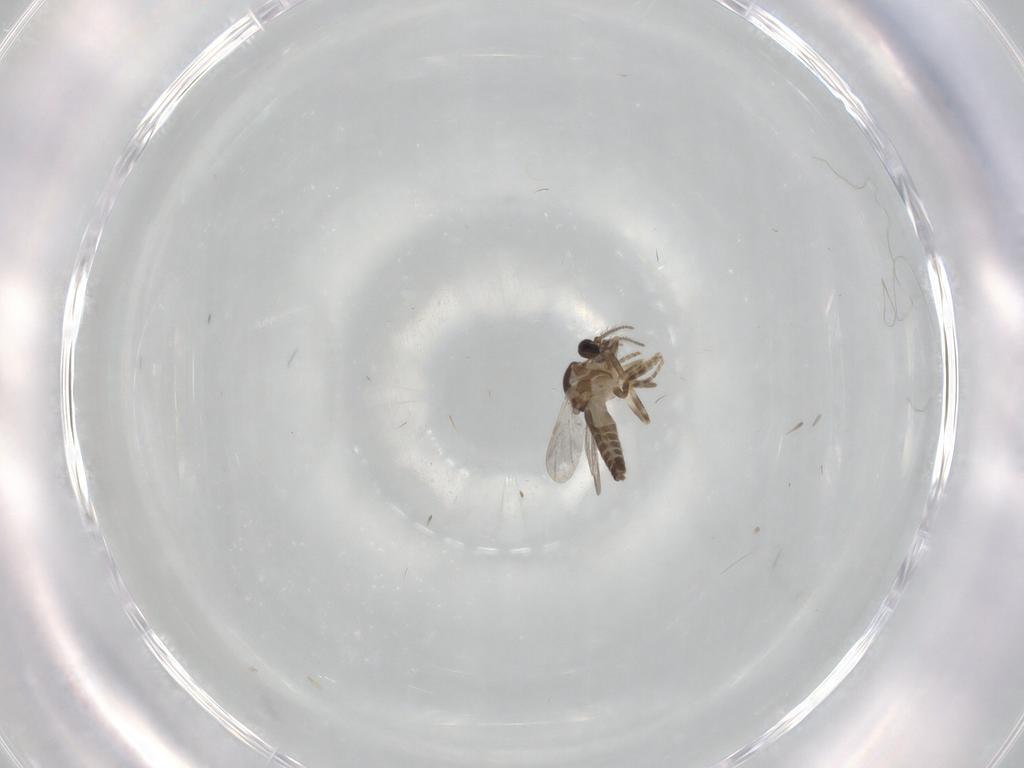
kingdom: Animalia
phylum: Arthropoda
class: Insecta
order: Diptera
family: Ceratopogonidae
